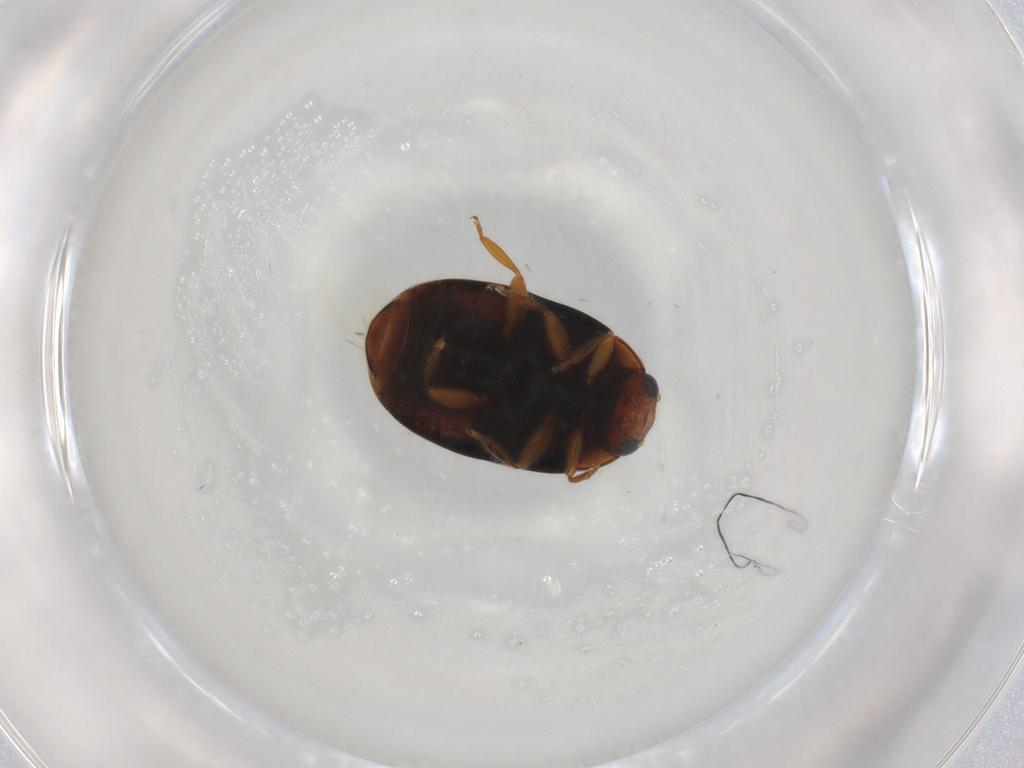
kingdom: Animalia
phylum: Arthropoda
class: Insecta
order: Coleoptera
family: Coccinellidae
